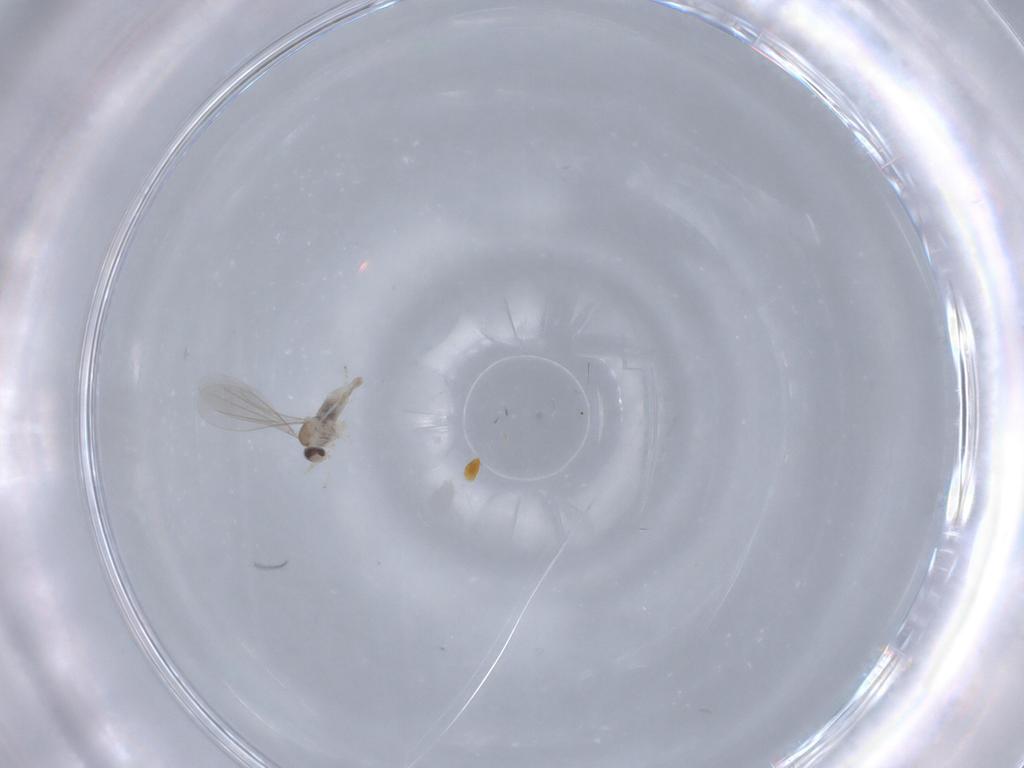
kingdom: Animalia
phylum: Arthropoda
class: Insecta
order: Diptera
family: Cecidomyiidae
